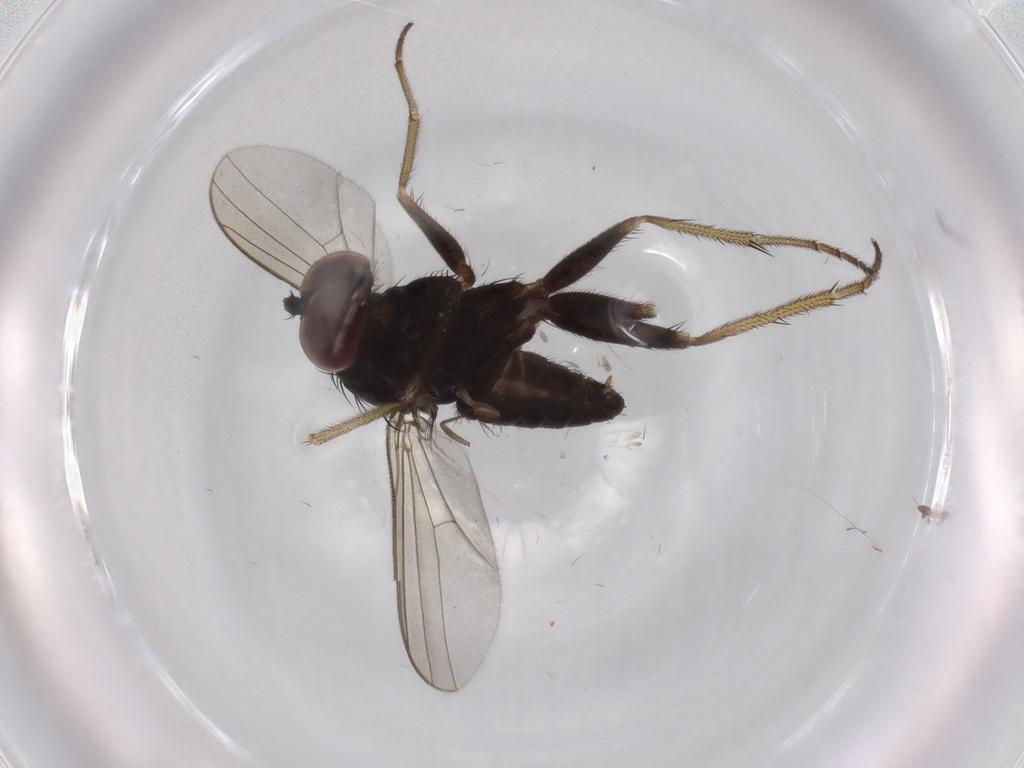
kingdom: Animalia
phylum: Arthropoda
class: Insecta
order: Diptera
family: Dolichopodidae
